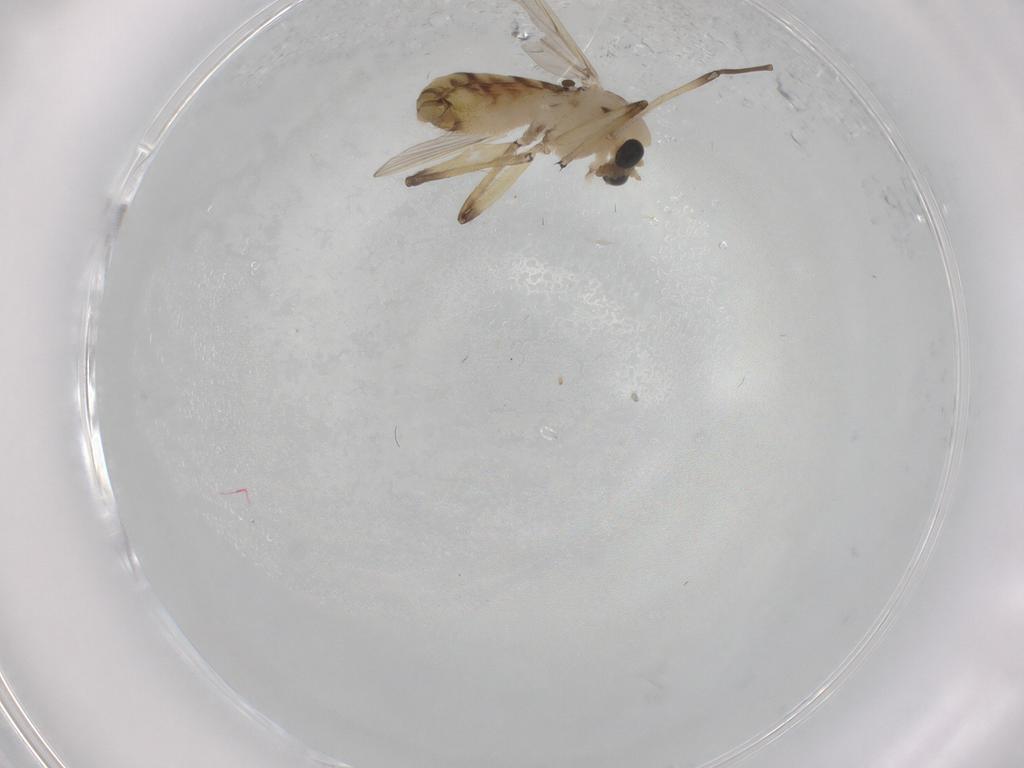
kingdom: Animalia
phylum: Arthropoda
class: Insecta
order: Diptera
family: Chironomidae
